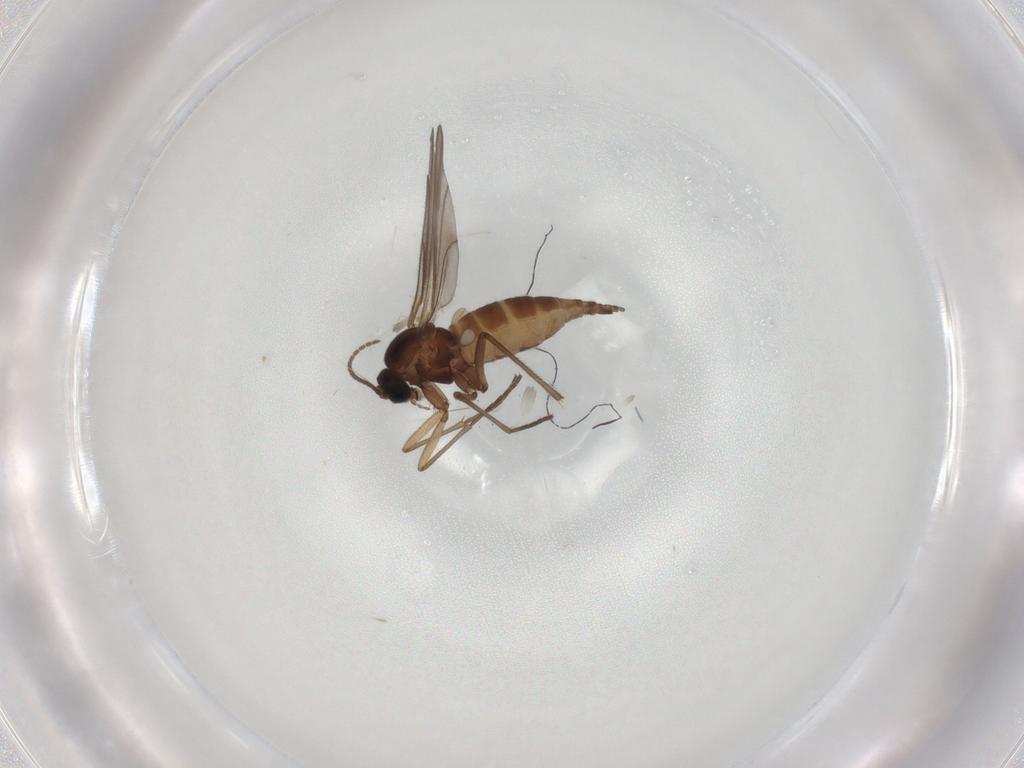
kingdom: Animalia
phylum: Arthropoda
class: Insecta
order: Diptera
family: Sciaridae
